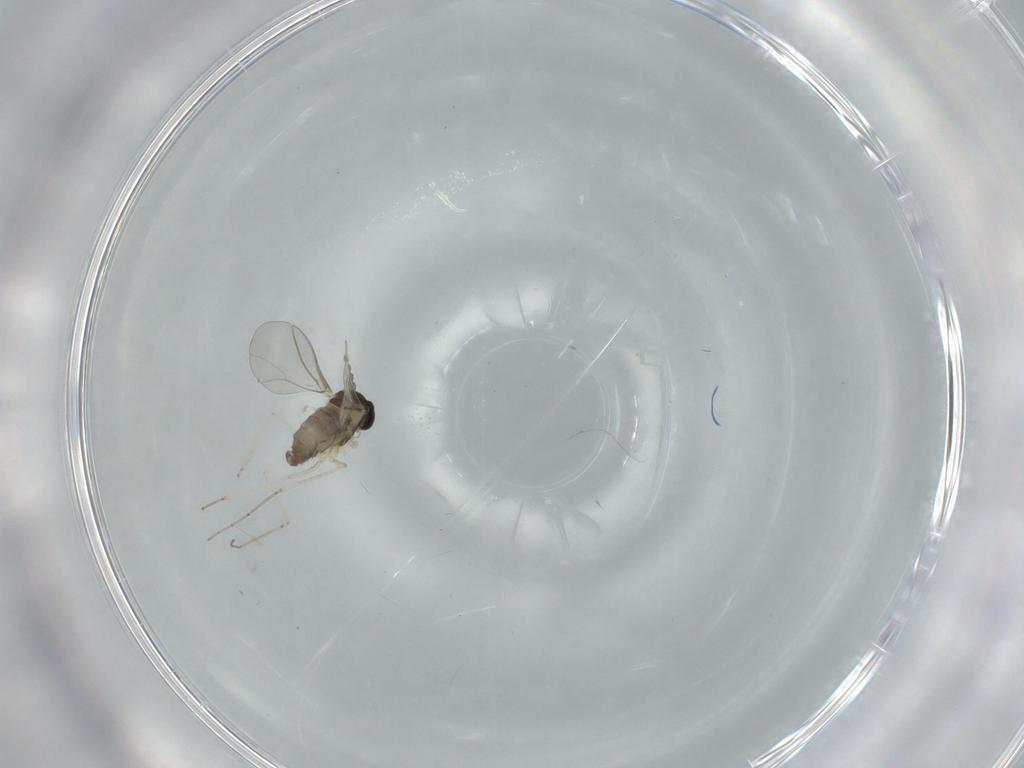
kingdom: Animalia
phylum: Arthropoda
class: Insecta
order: Diptera
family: Cecidomyiidae
